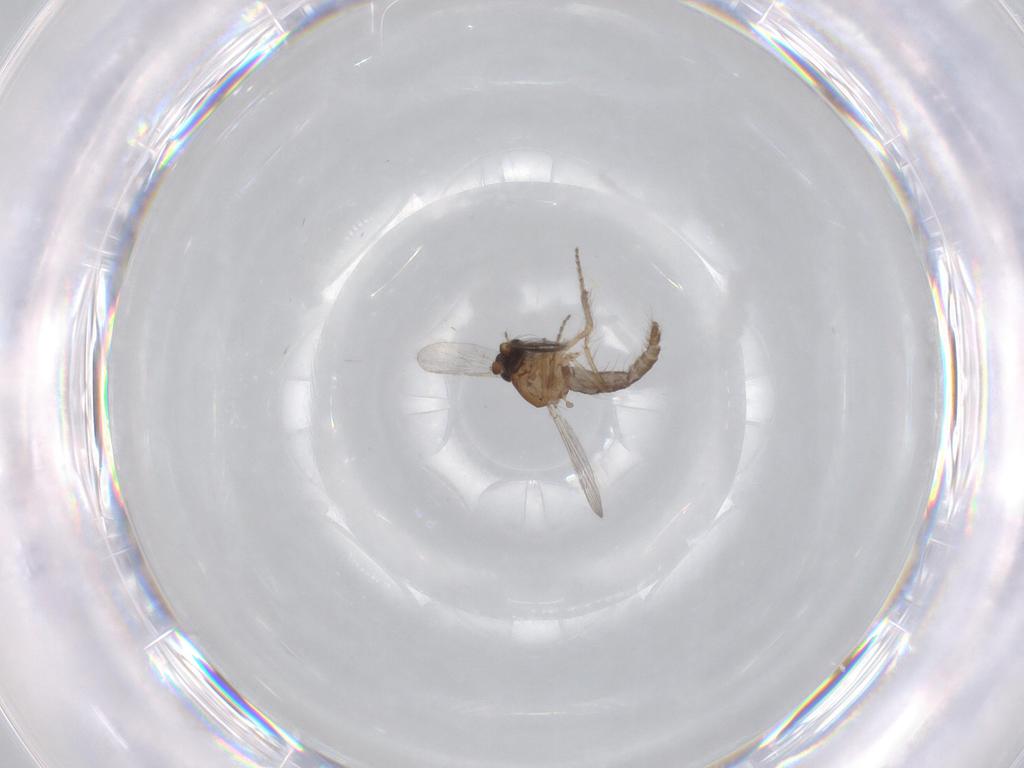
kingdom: Animalia
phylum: Arthropoda
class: Insecta
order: Diptera
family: Ceratopogonidae
